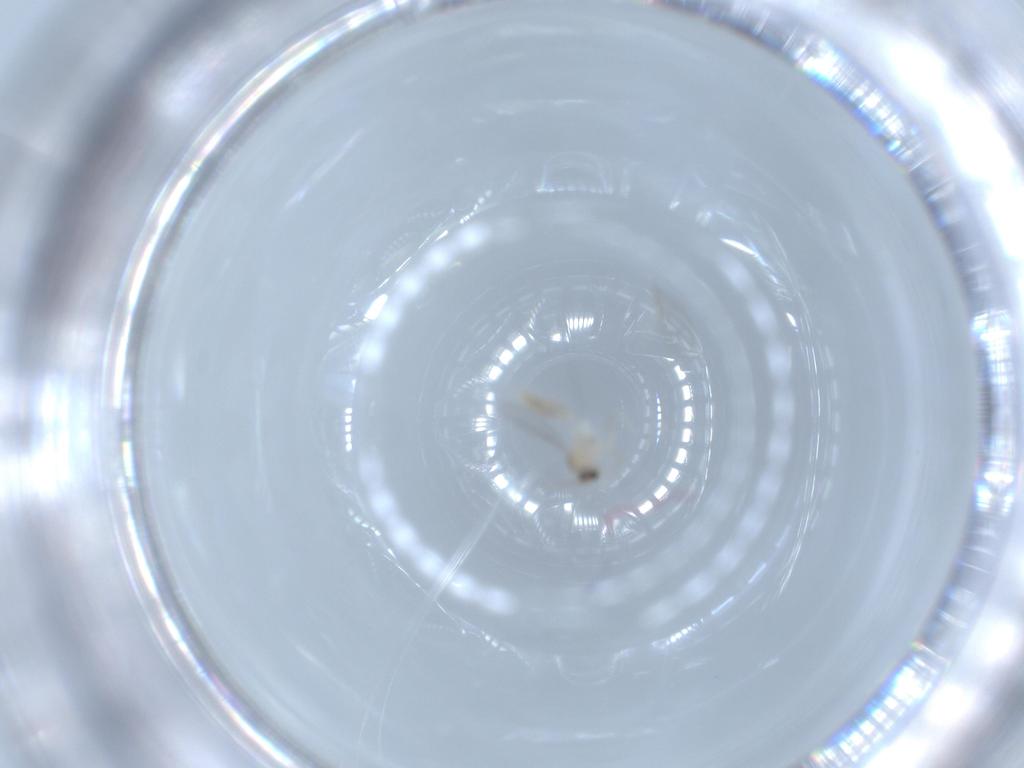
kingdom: Animalia
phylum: Arthropoda
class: Insecta
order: Diptera
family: Cecidomyiidae
